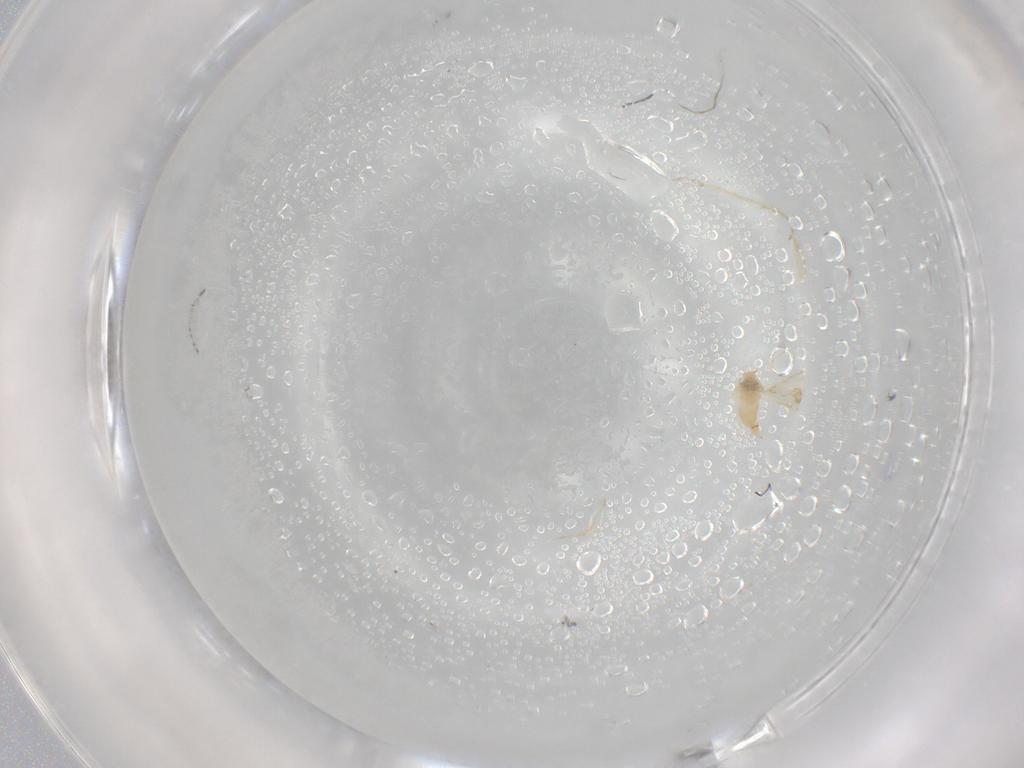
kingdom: Animalia
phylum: Arthropoda
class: Insecta
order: Hemiptera
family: Aleyrodidae
